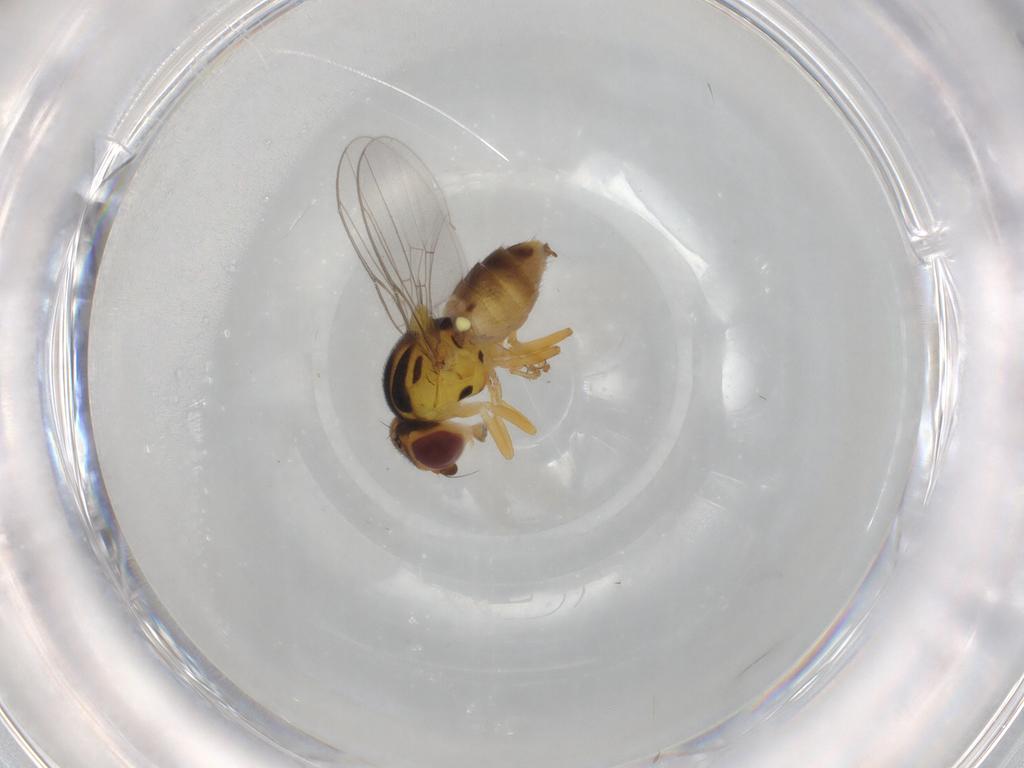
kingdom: Animalia
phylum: Arthropoda
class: Insecta
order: Diptera
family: Chloropidae
